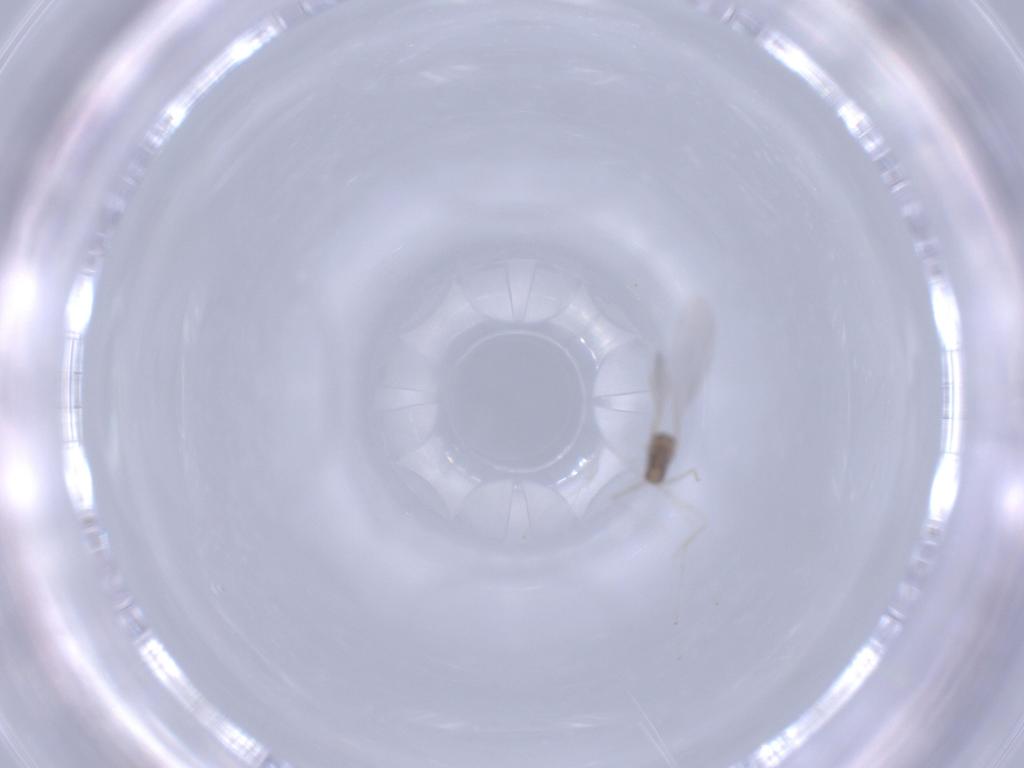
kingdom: Animalia
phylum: Arthropoda
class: Insecta
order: Diptera
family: Cecidomyiidae
